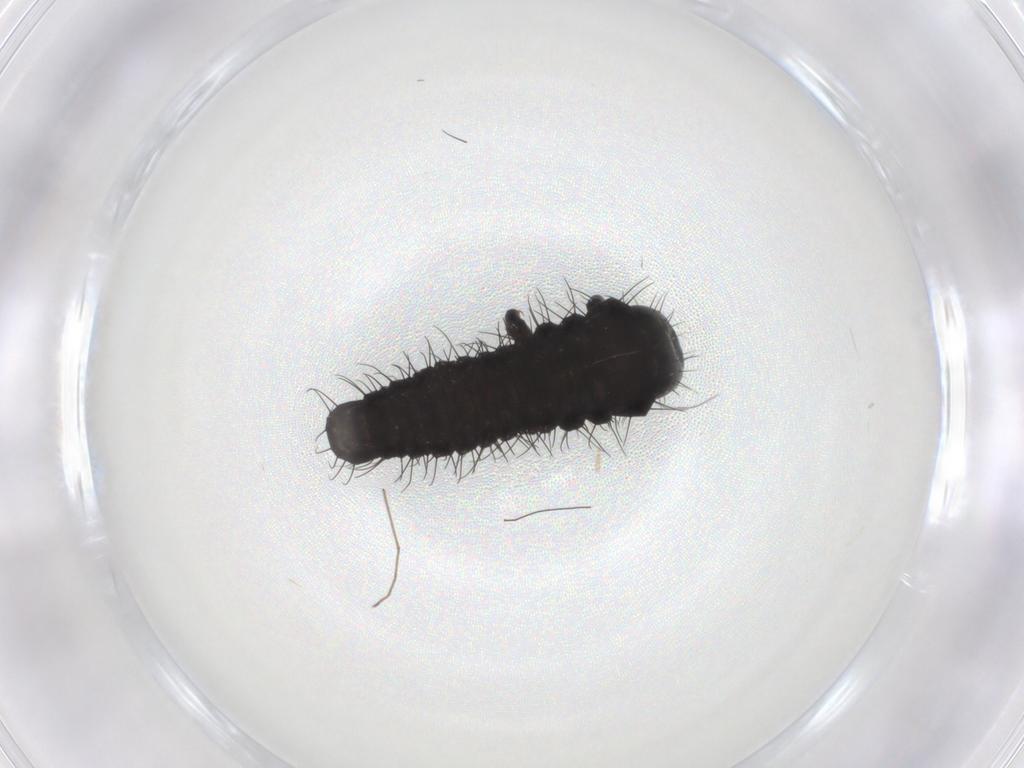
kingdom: Animalia
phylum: Arthropoda
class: Insecta
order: Coleoptera
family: Chrysomelidae
